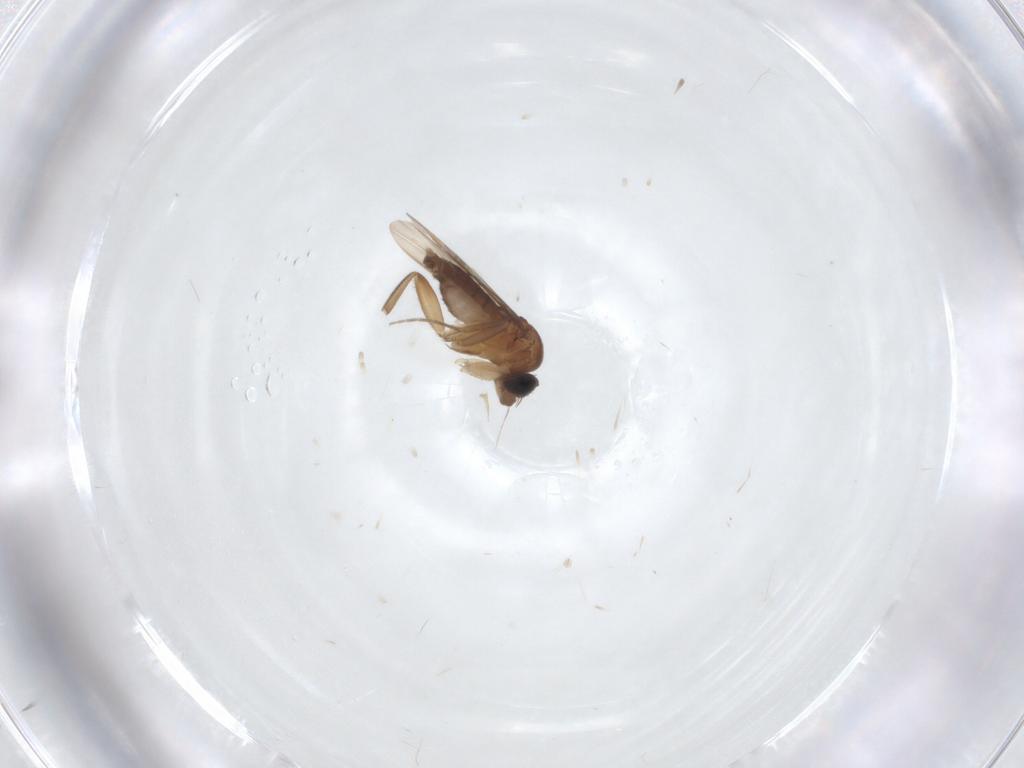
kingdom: Animalia
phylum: Arthropoda
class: Insecta
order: Diptera
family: Phoridae
